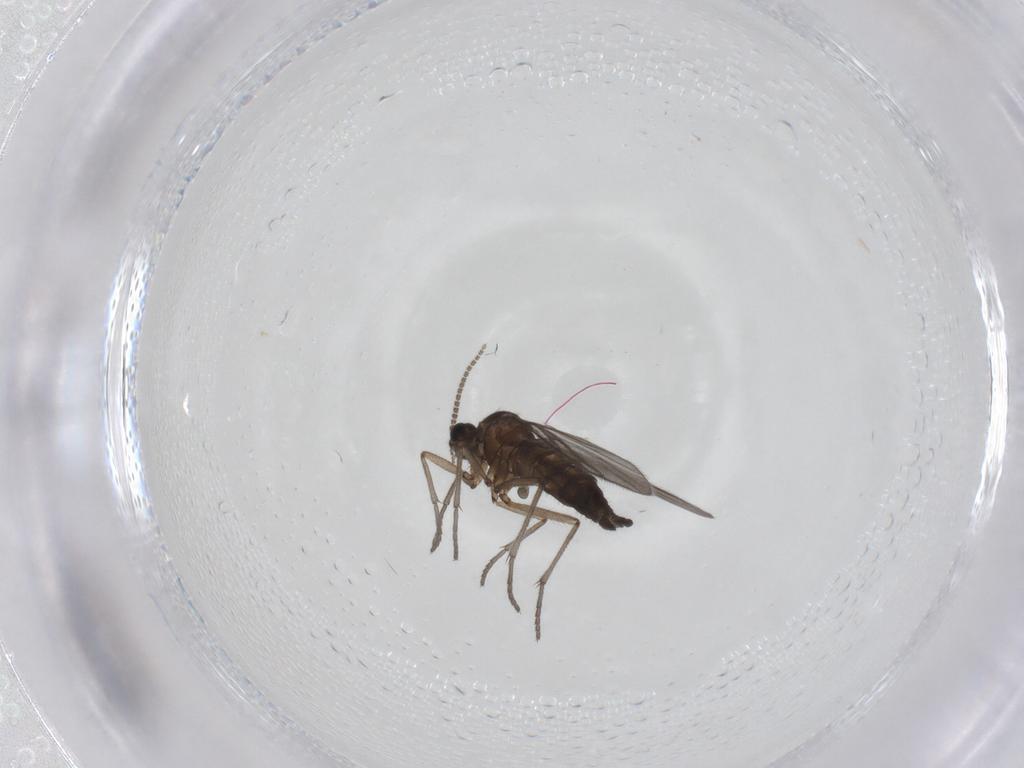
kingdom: Animalia
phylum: Arthropoda
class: Insecta
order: Diptera
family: Sciaridae
